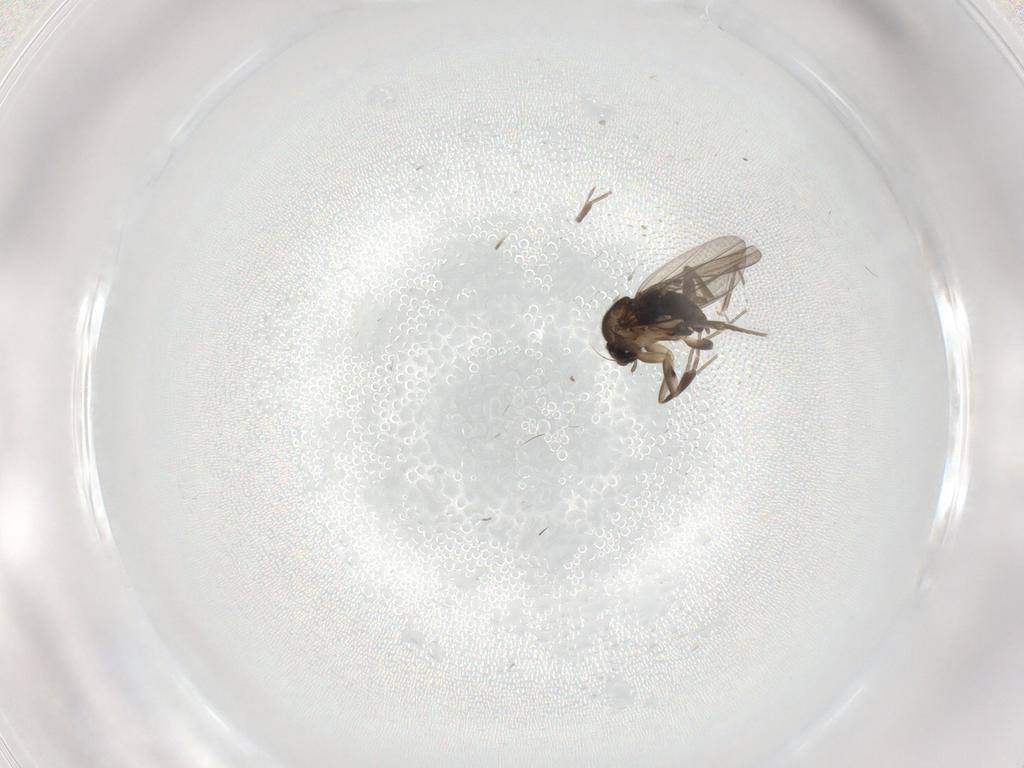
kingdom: Animalia
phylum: Arthropoda
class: Insecta
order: Diptera
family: Phoridae
